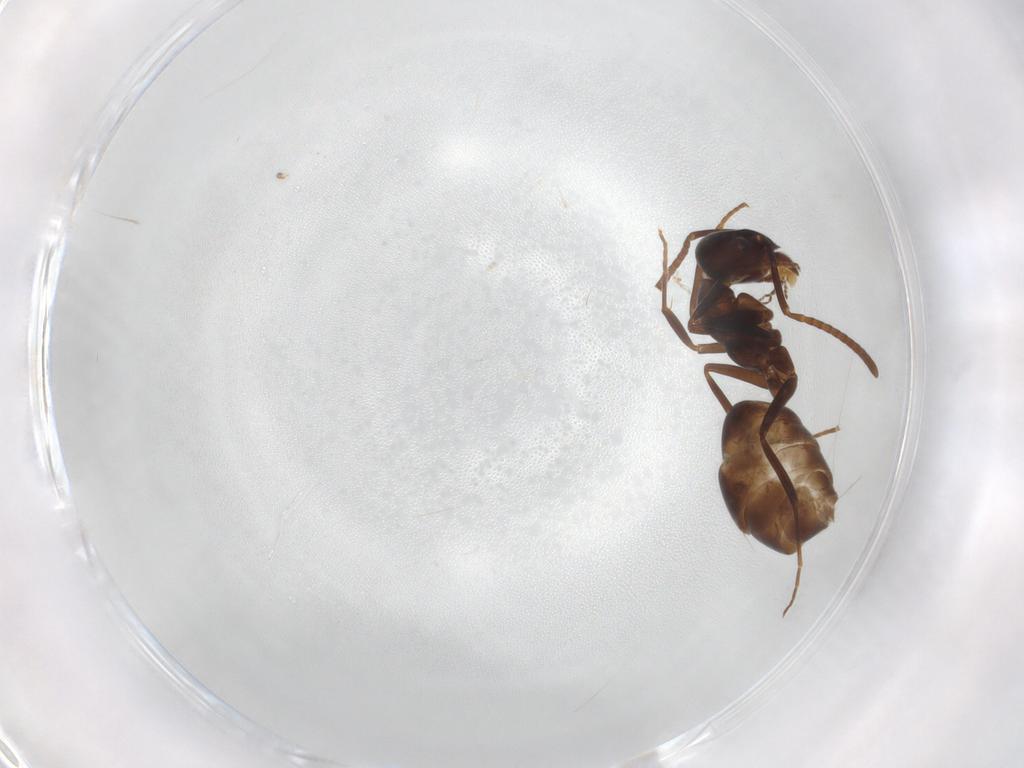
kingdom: Animalia
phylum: Arthropoda
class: Insecta
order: Hymenoptera
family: Formicidae
